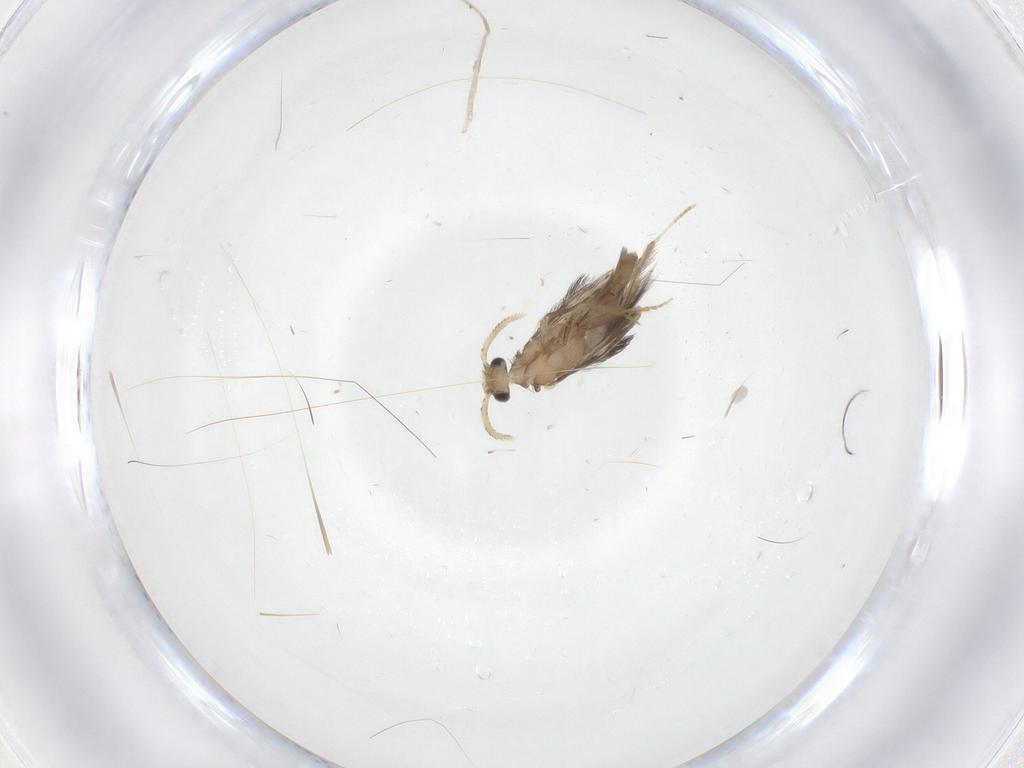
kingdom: Animalia
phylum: Arthropoda
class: Insecta
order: Trichoptera
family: Hydroptilidae
